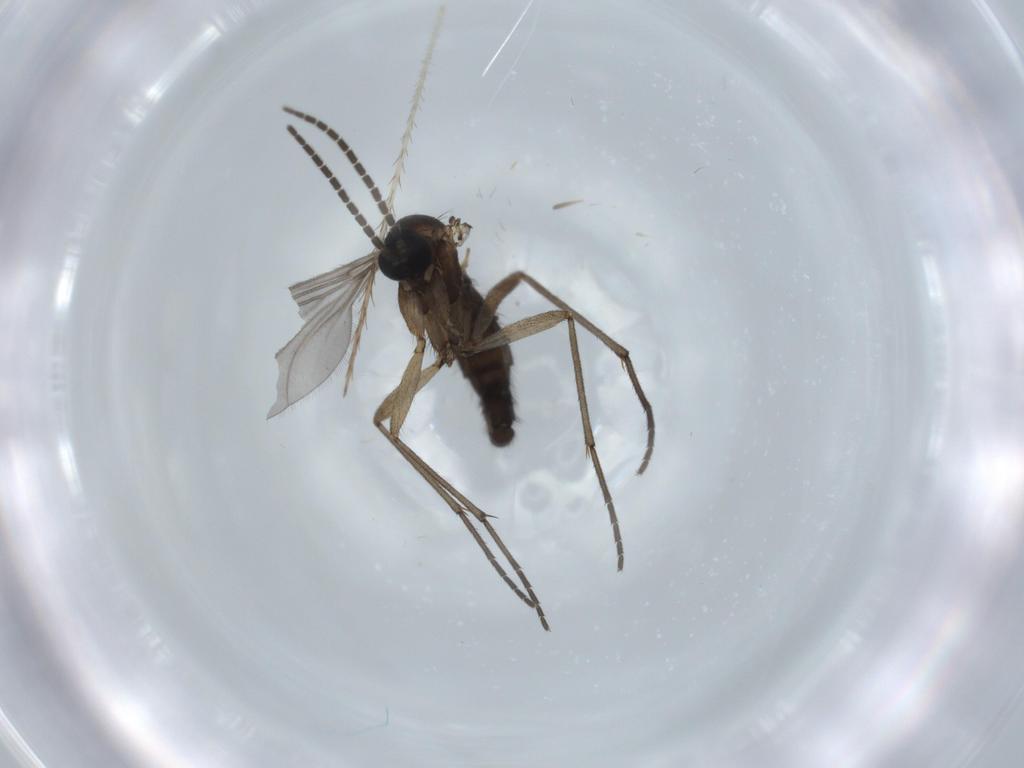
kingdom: Animalia
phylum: Arthropoda
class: Insecta
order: Diptera
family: Sciaridae
